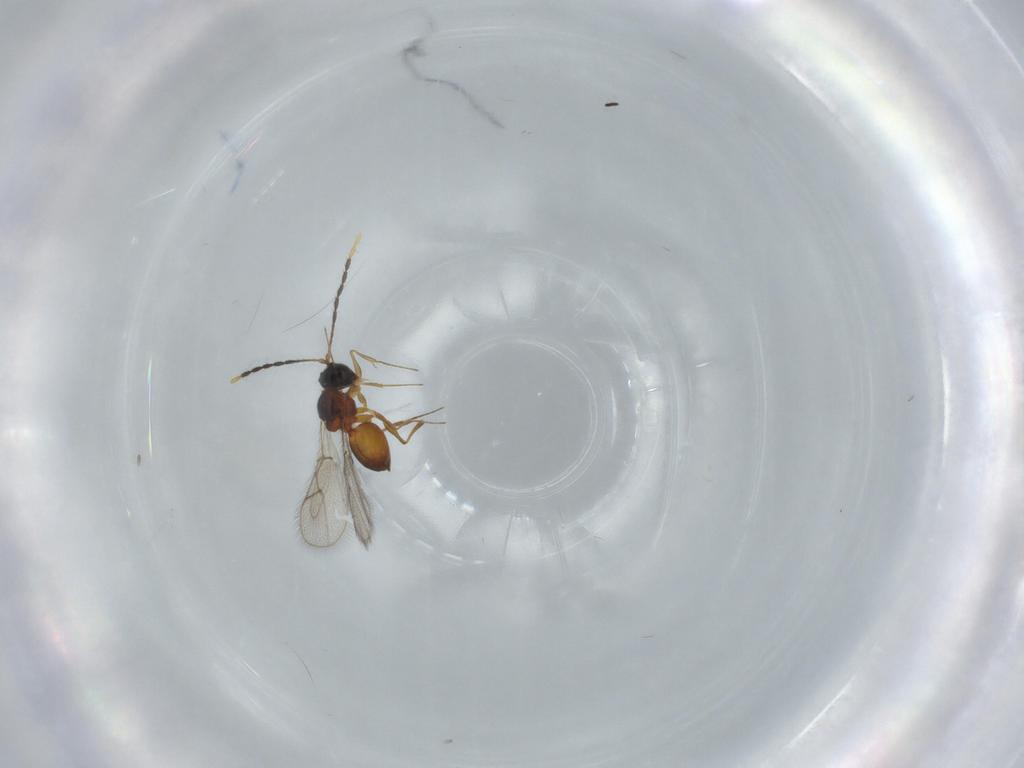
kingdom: Animalia
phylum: Arthropoda
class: Insecta
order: Hymenoptera
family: Figitidae
